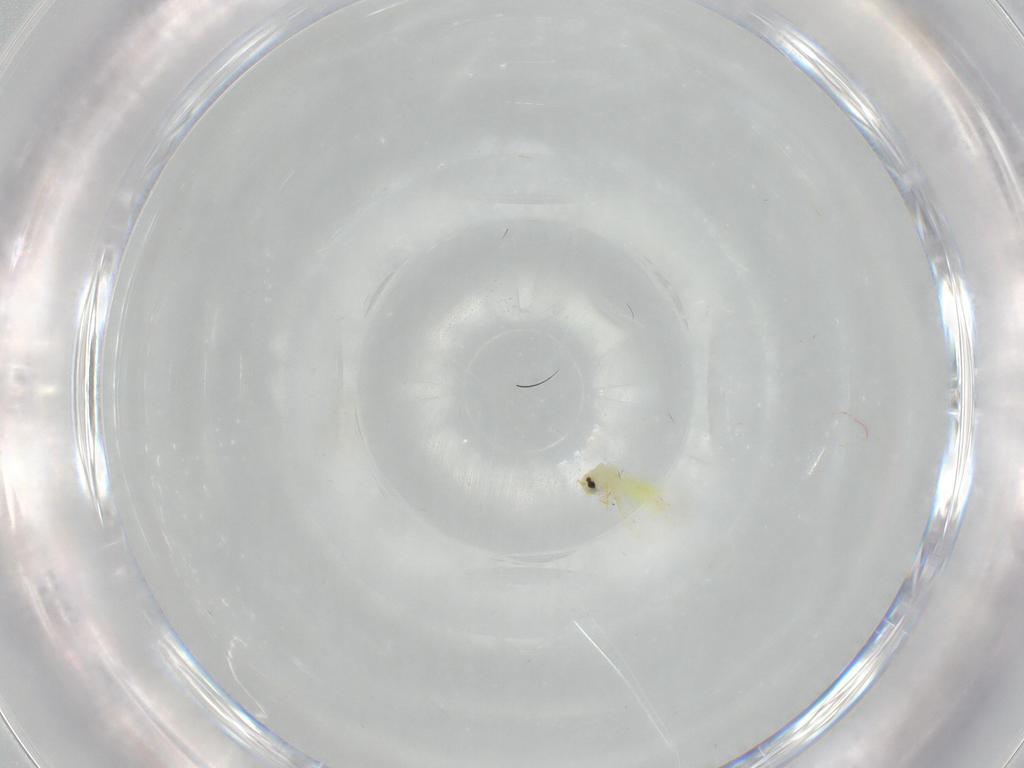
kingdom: Animalia
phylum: Arthropoda
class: Insecta
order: Hemiptera
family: Aleyrodidae
